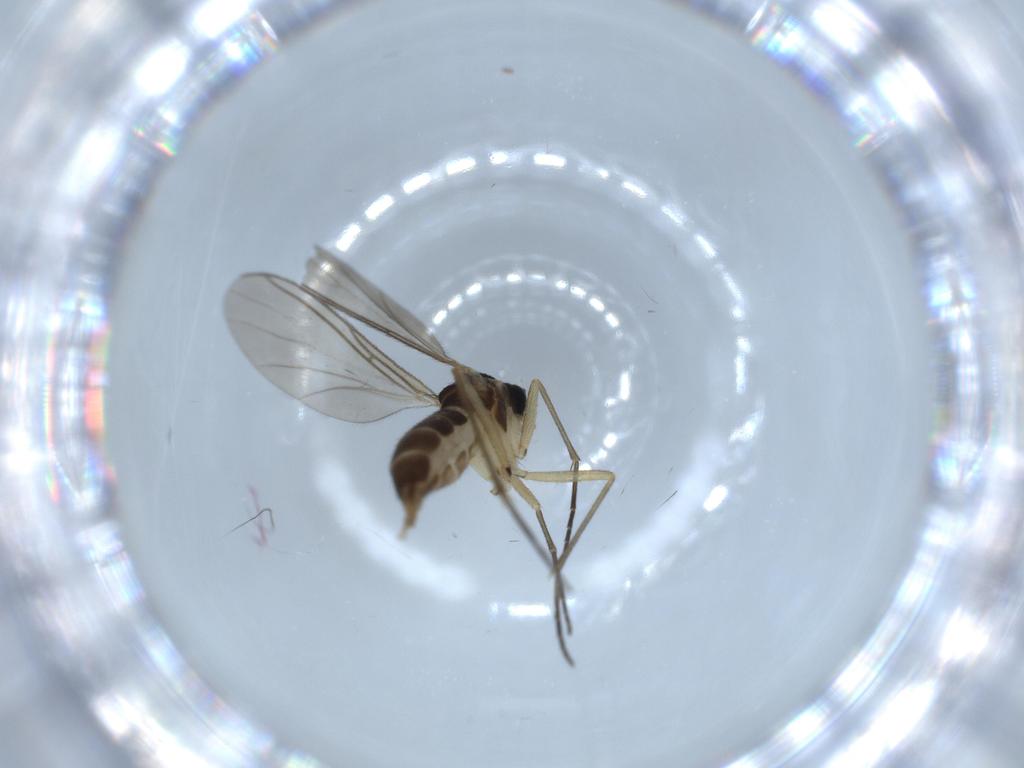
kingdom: Animalia
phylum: Arthropoda
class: Insecta
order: Diptera
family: Sciaridae
